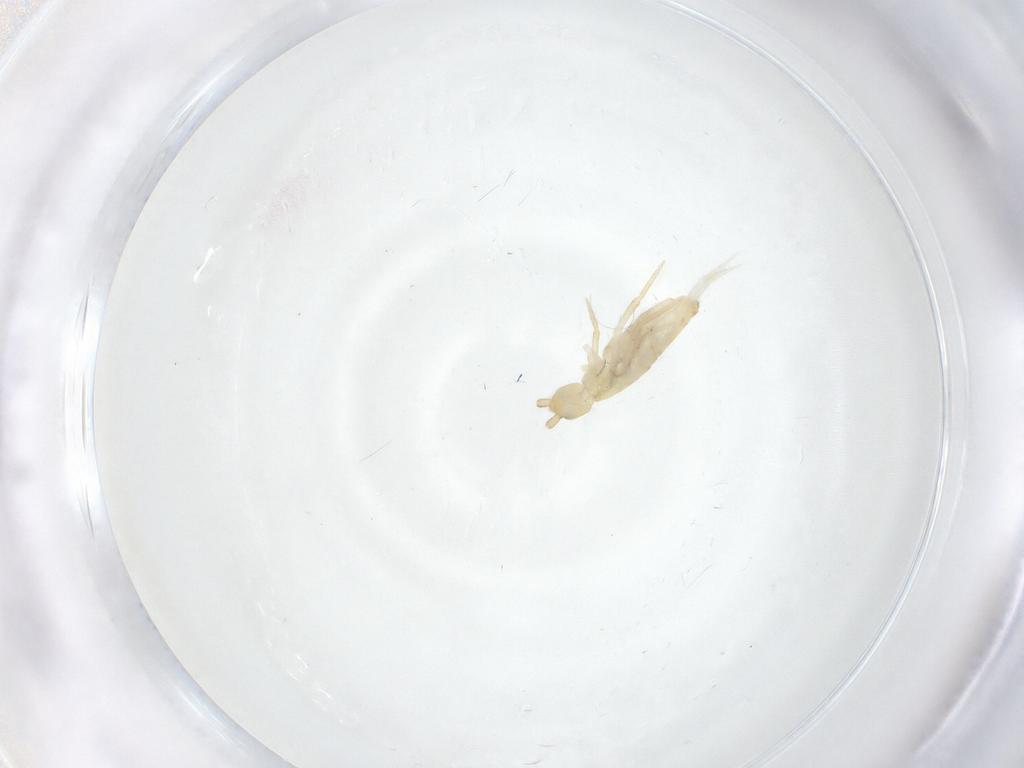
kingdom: Animalia
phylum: Arthropoda
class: Collembola
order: Entomobryomorpha
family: Entomobryidae
